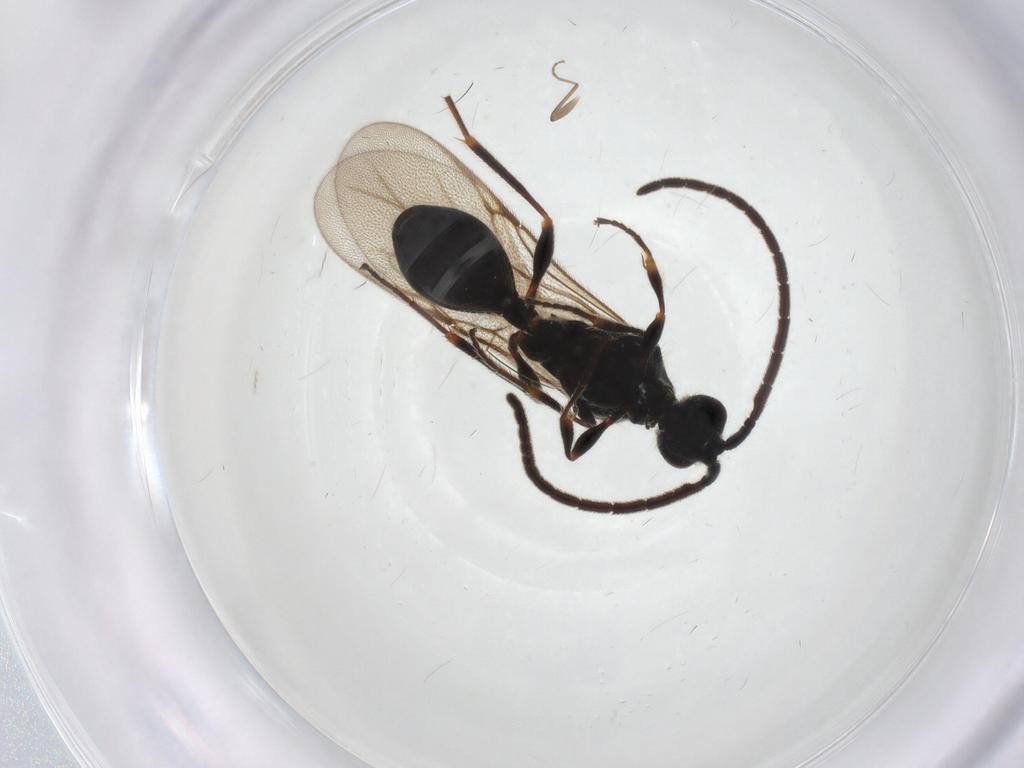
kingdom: Animalia
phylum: Arthropoda
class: Insecta
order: Hymenoptera
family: Diapriidae
